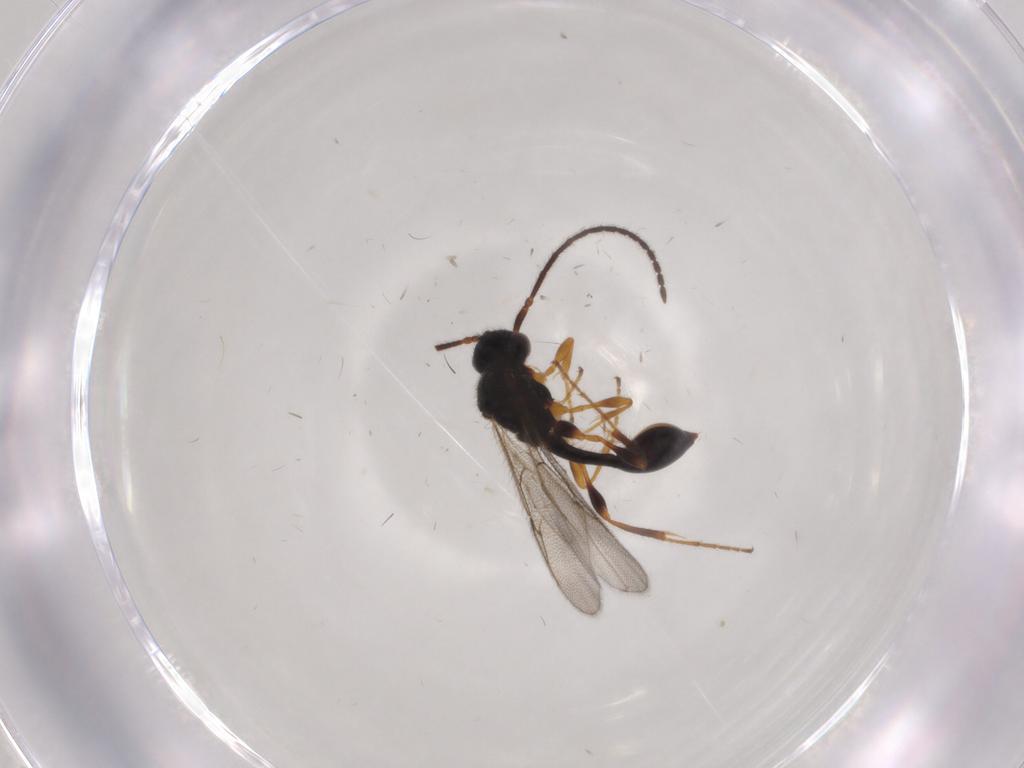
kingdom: Animalia
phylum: Arthropoda
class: Insecta
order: Hymenoptera
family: Diapriidae
